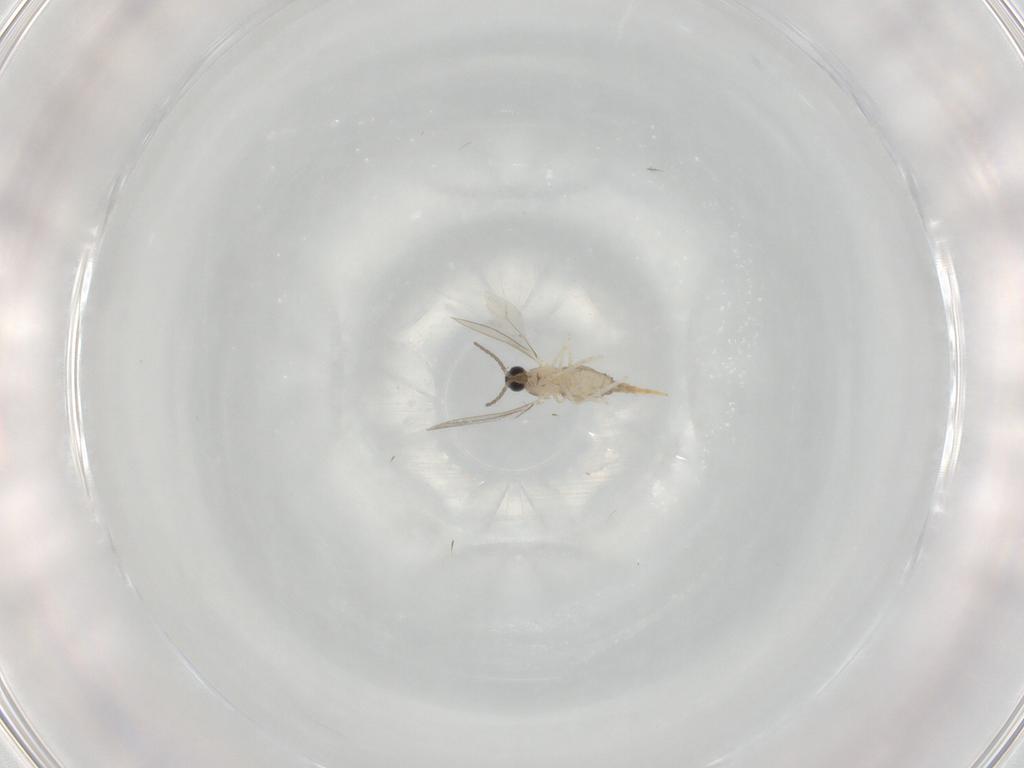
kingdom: Animalia
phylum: Arthropoda
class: Insecta
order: Diptera
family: Cecidomyiidae
